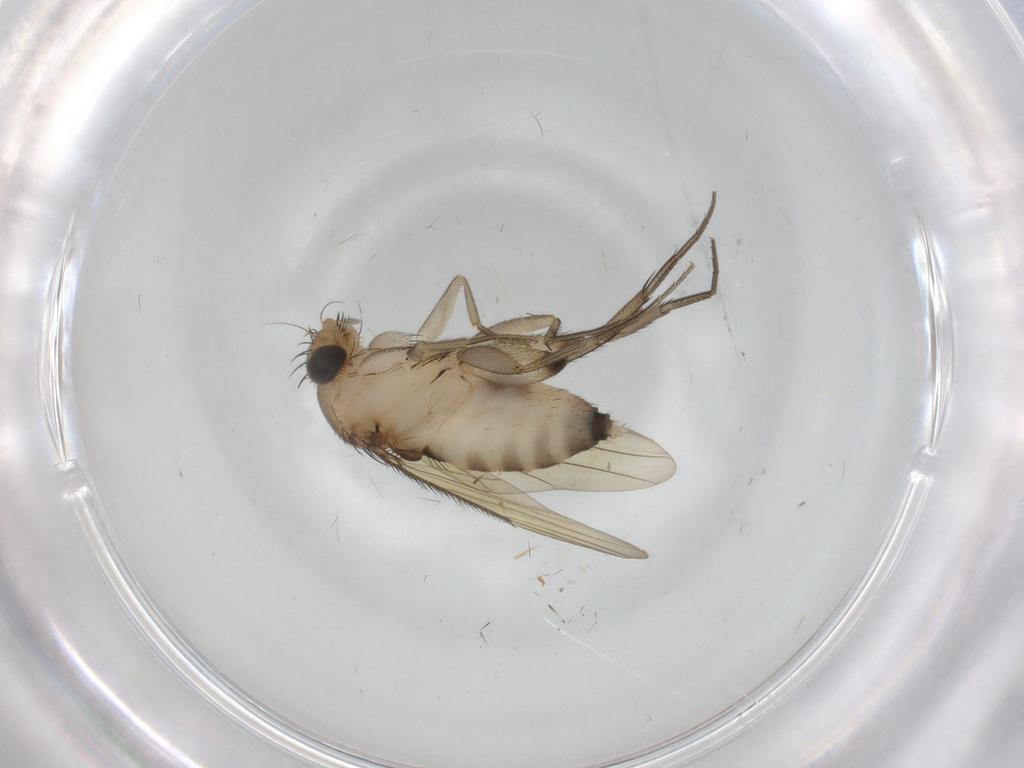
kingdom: Animalia
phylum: Arthropoda
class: Insecta
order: Diptera
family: Phoridae
